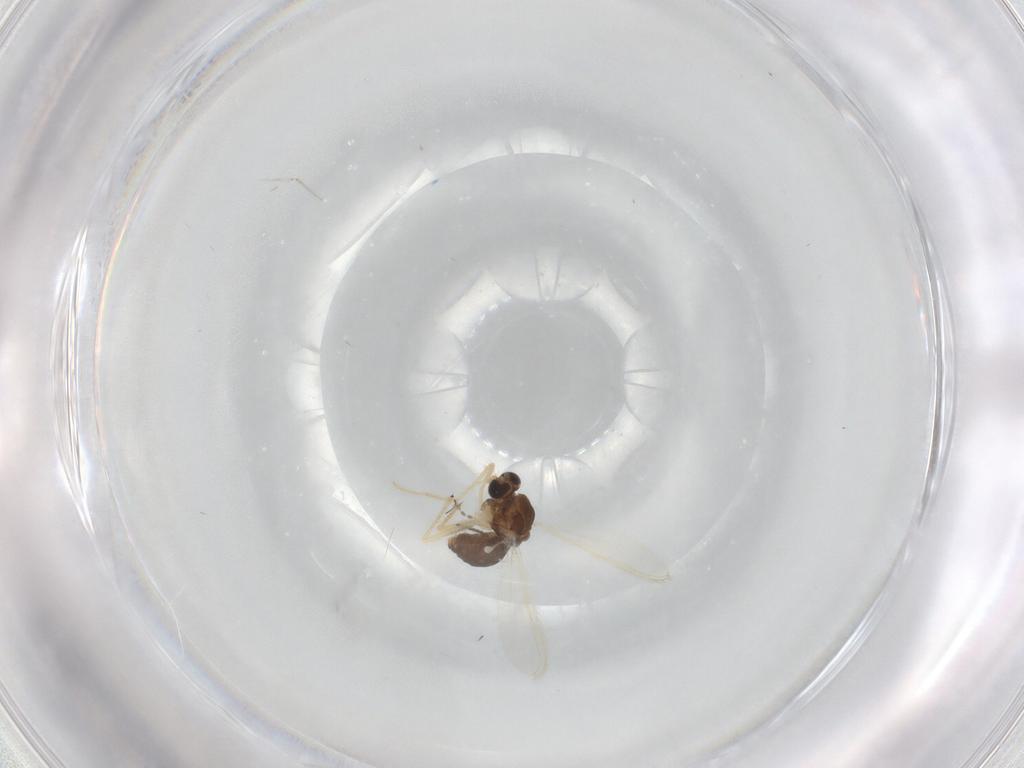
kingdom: Animalia
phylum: Arthropoda
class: Insecta
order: Diptera
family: Chironomidae
